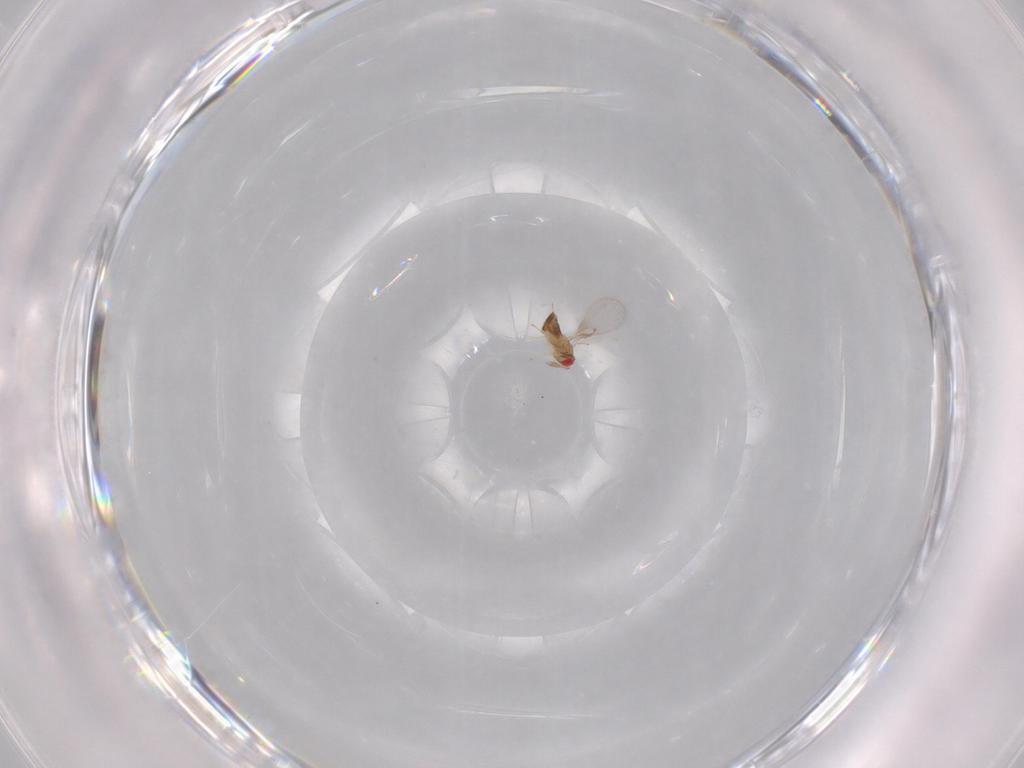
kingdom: Animalia
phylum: Arthropoda
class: Insecta
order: Hymenoptera
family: Trichogrammatidae
